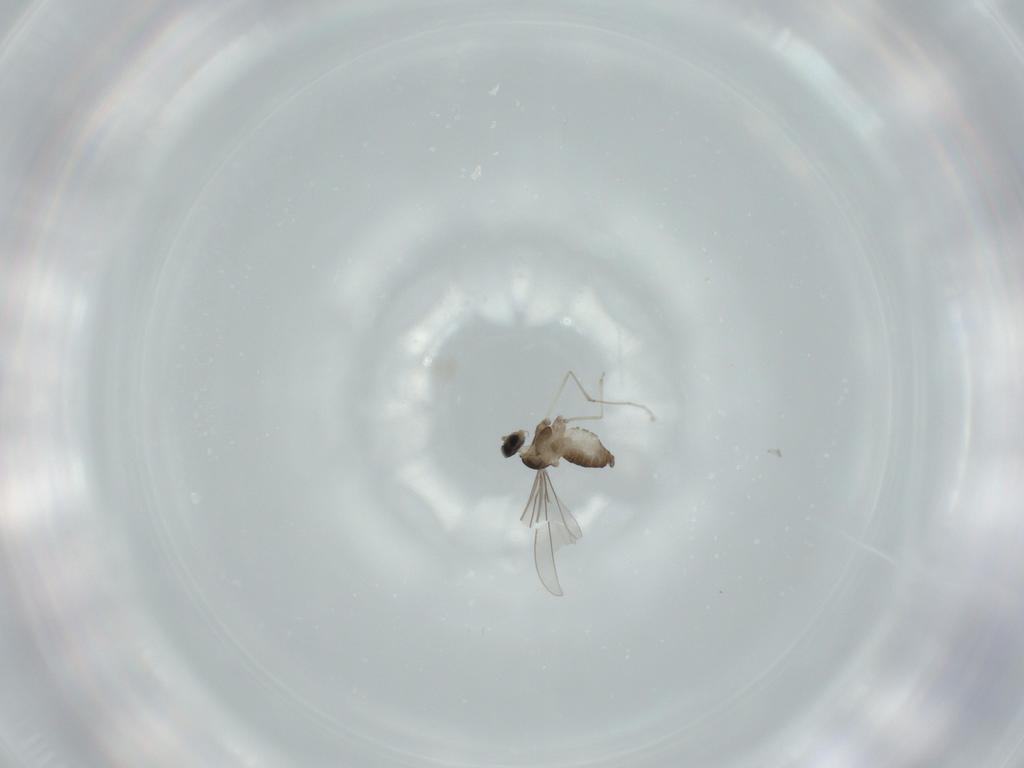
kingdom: Animalia
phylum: Arthropoda
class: Insecta
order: Diptera
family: Cecidomyiidae
